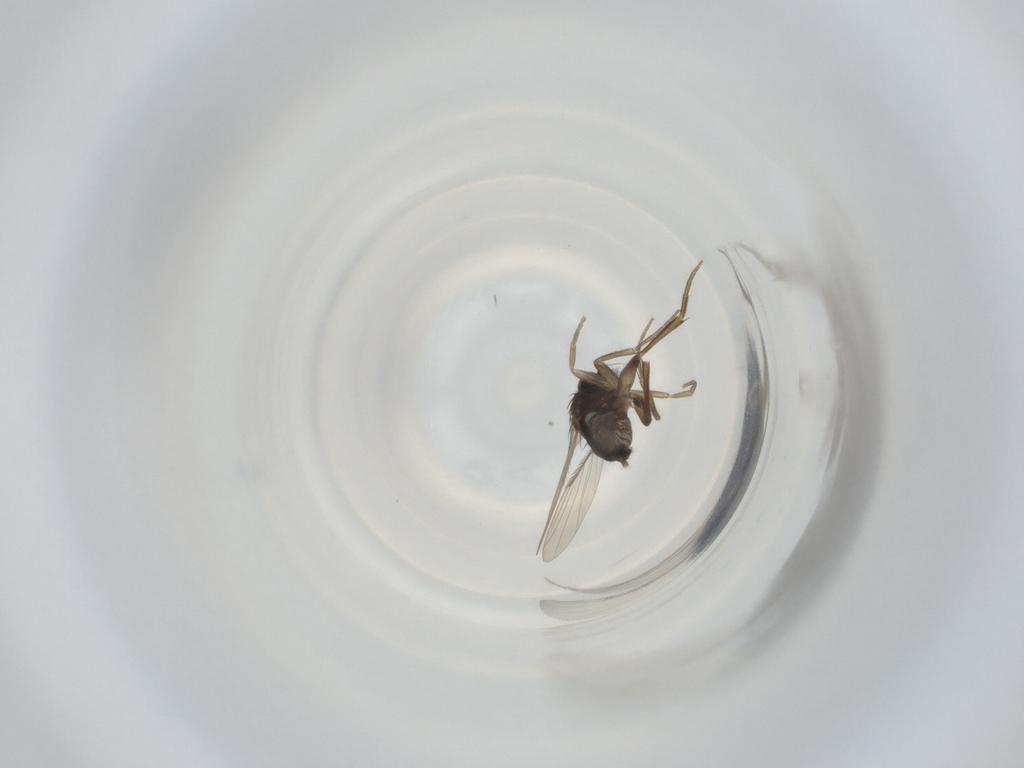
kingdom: Animalia
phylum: Arthropoda
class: Insecta
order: Diptera
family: Phoridae
